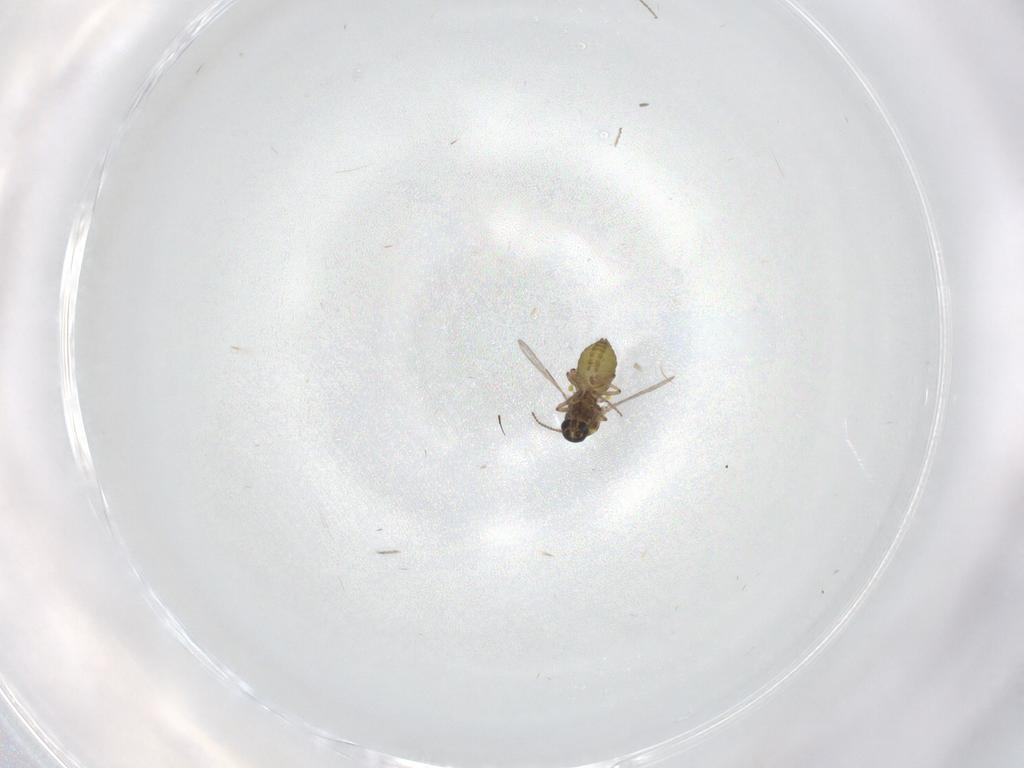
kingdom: Animalia
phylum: Arthropoda
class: Insecta
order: Diptera
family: Ceratopogonidae
